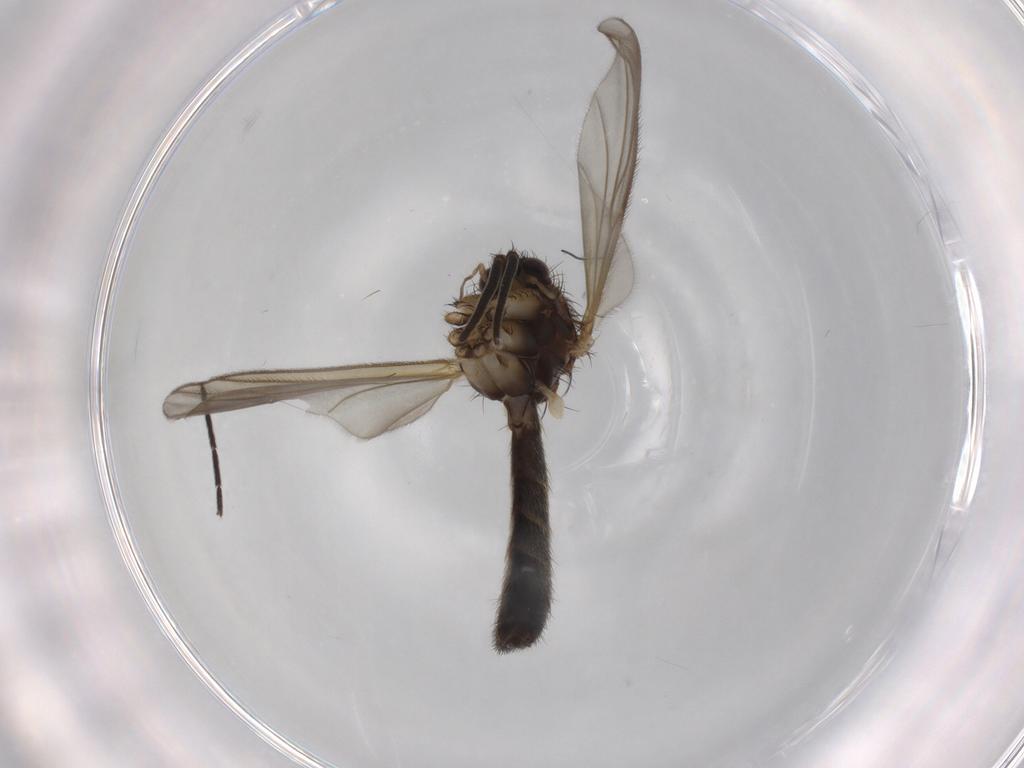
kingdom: Animalia
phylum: Arthropoda
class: Insecta
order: Diptera
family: Mycetophilidae
